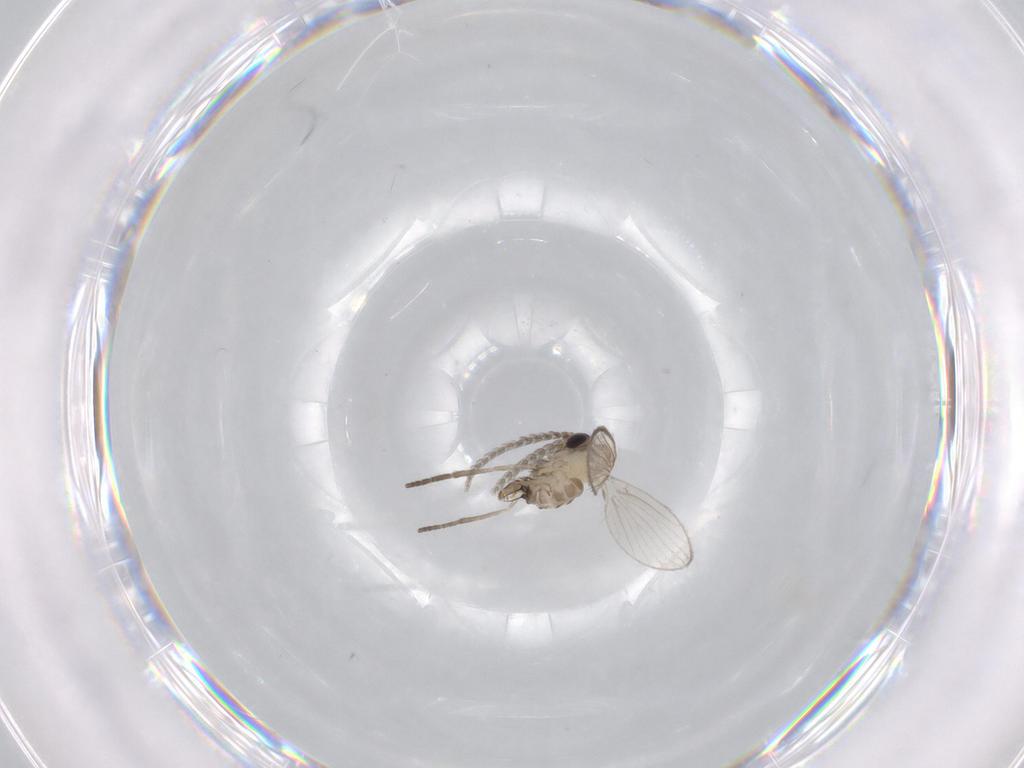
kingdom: Animalia
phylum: Arthropoda
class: Insecta
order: Diptera
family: Psychodidae
